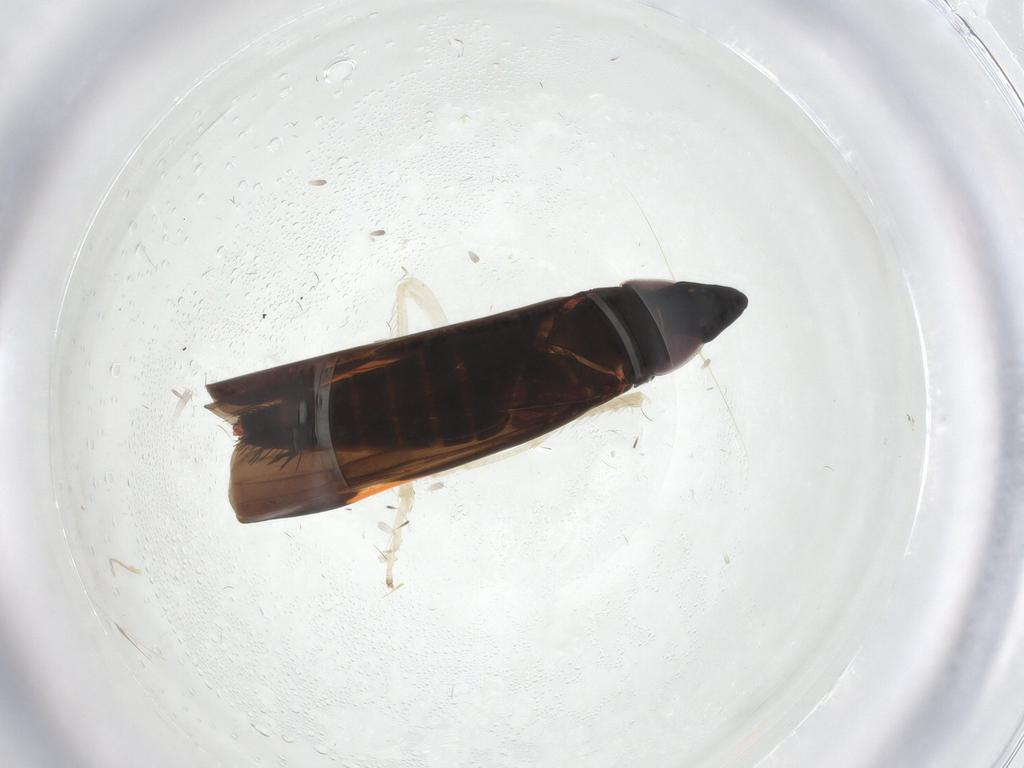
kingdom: Animalia
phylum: Arthropoda
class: Insecta
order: Hemiptera
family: Cicadellidae
